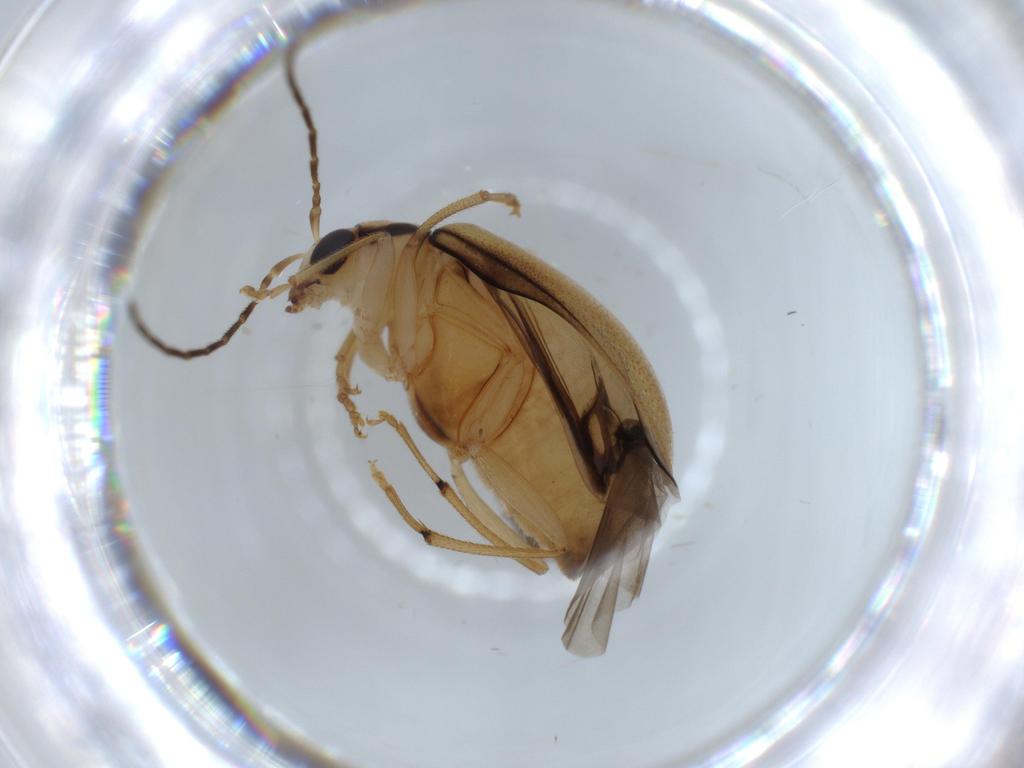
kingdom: Animalia
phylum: Arthropoda
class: Insecta
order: Coleoptera
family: Chrysomelidae
